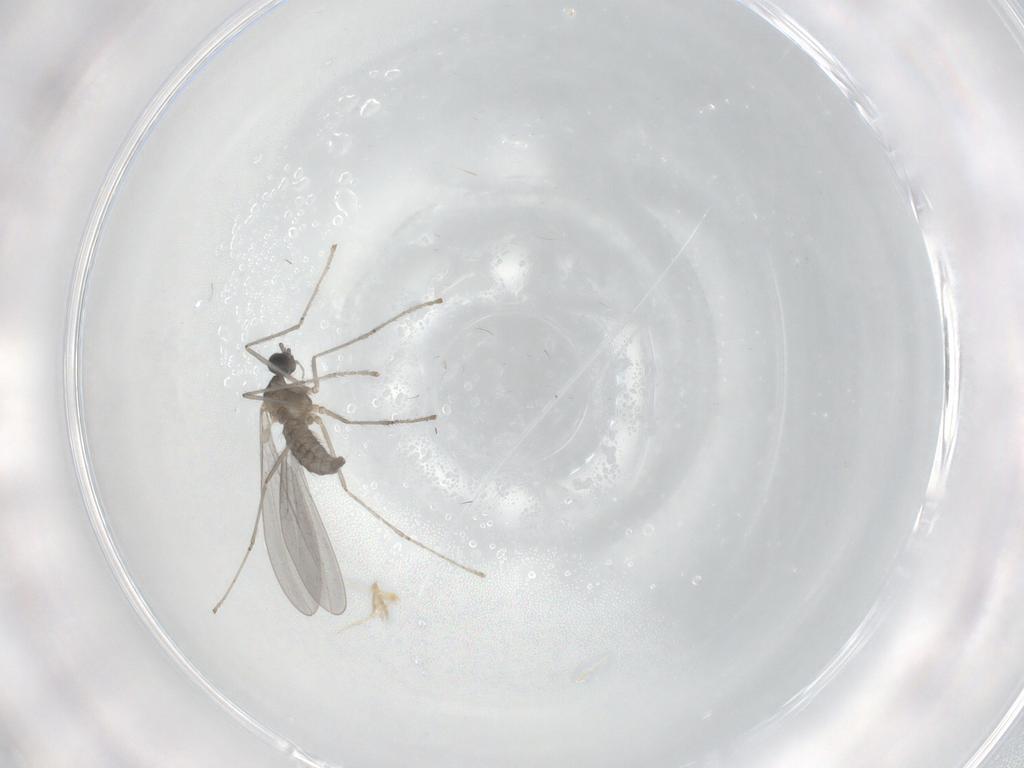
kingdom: Animalia
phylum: Arthropoda
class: Insecta
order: Diptera
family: Cecidomyiidae
